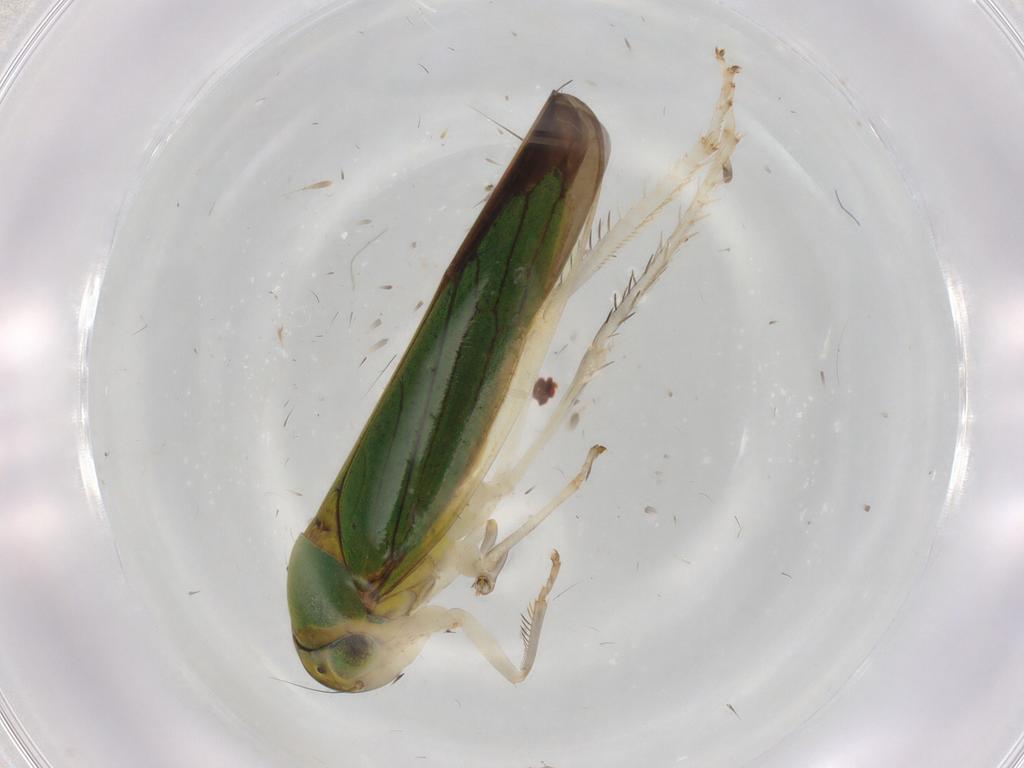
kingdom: Animalia
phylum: Arthropoda
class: Insecta
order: Hemiptera
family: Cicadellidae
